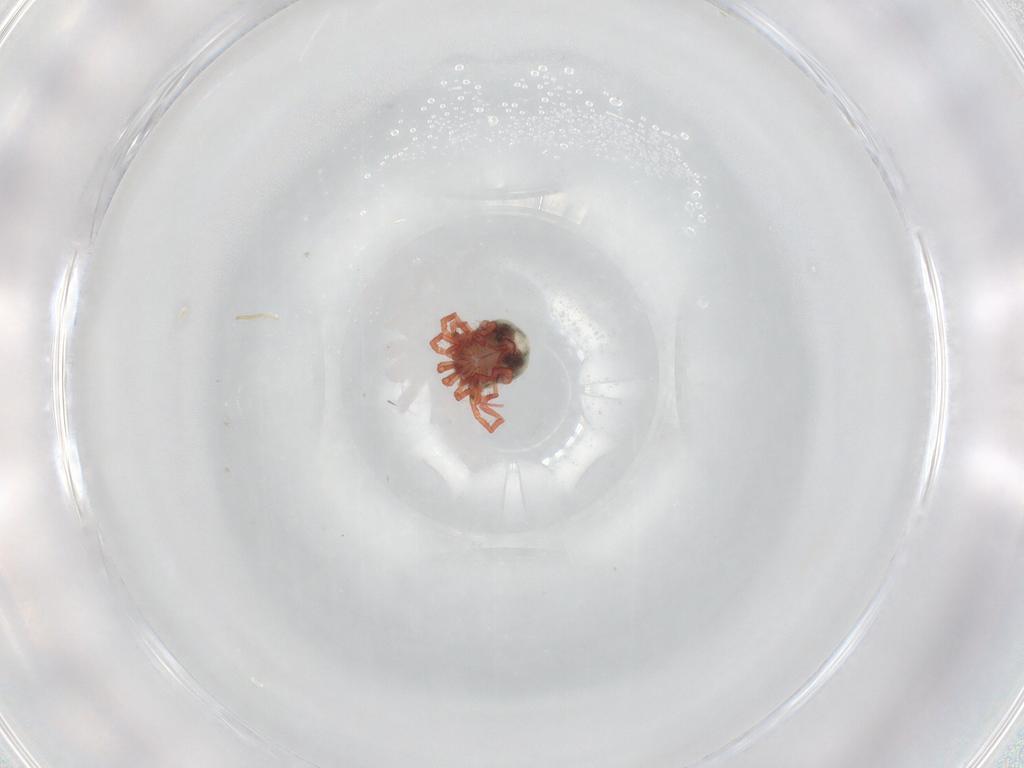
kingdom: Animalia
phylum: Arthropoda
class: Arachnida
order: Trombidiformes
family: Pionidae
